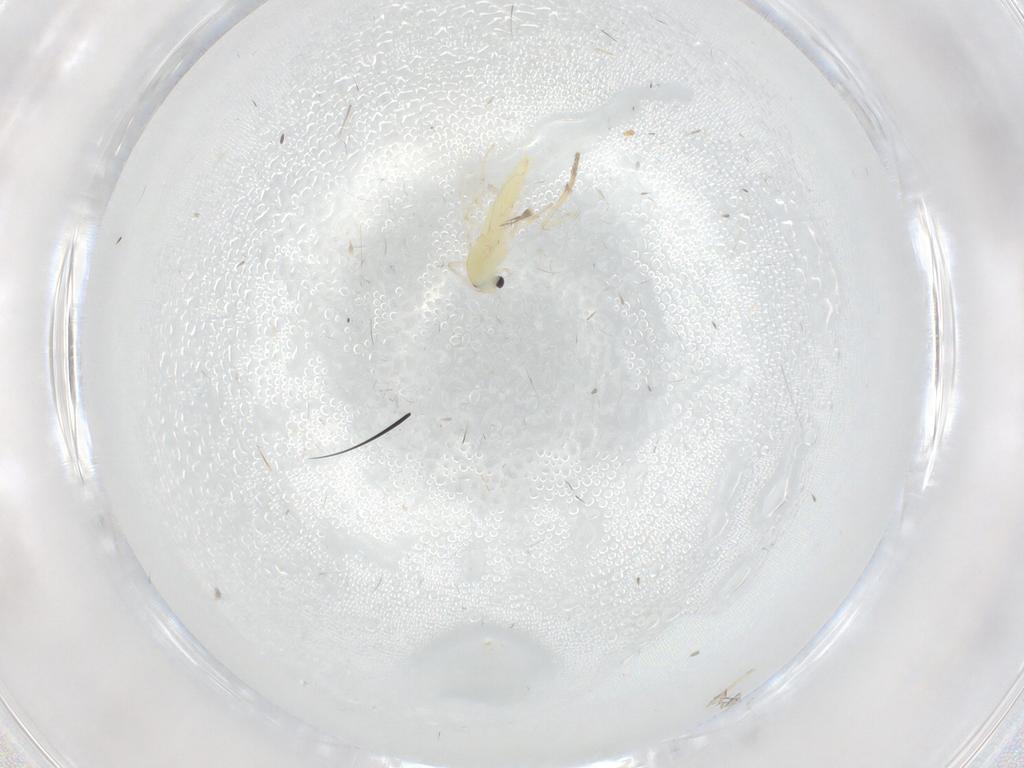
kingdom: Animalia
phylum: Arthropoda
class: Insecta
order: Diptera
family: Chironomidae
